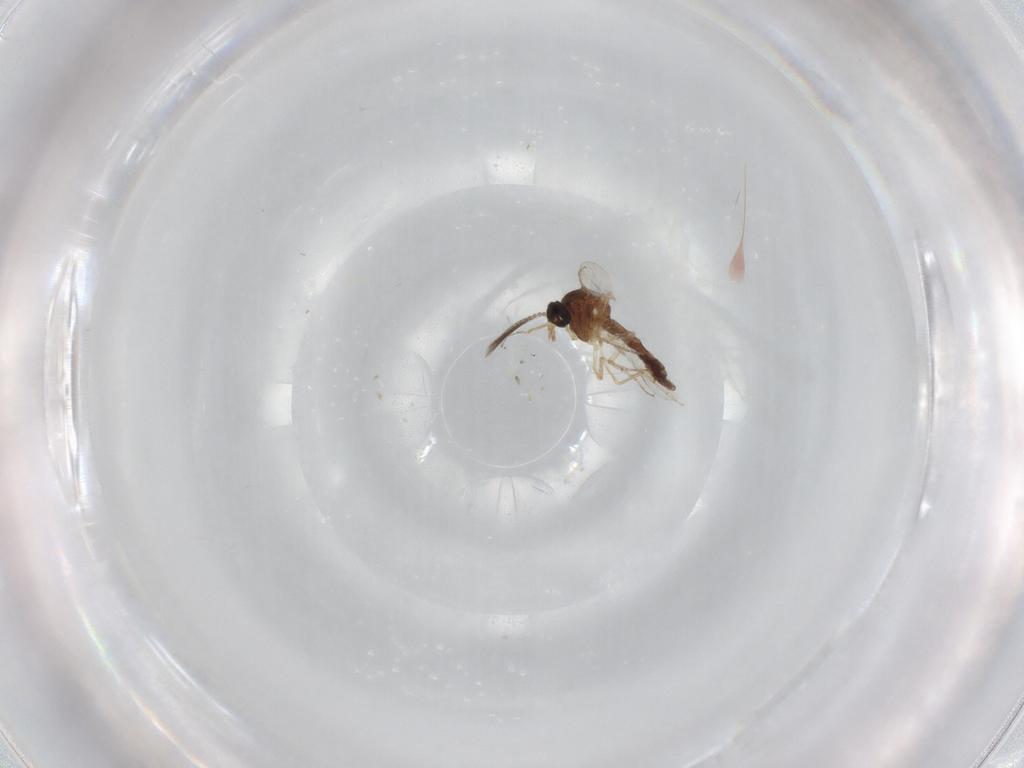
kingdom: Animalia
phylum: Arthropoda
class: Insecta
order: Diptera
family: Ceratopogonidae
